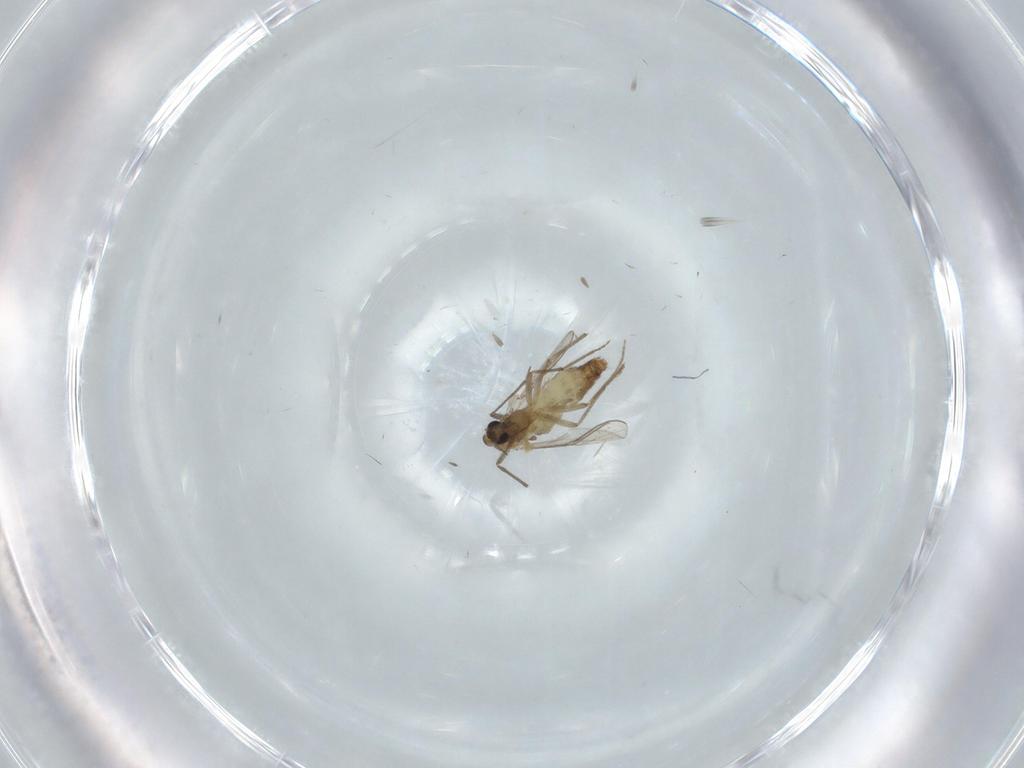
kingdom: Animalia
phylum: Arthropoda
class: Insecta
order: Diptera
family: Chironomidae
